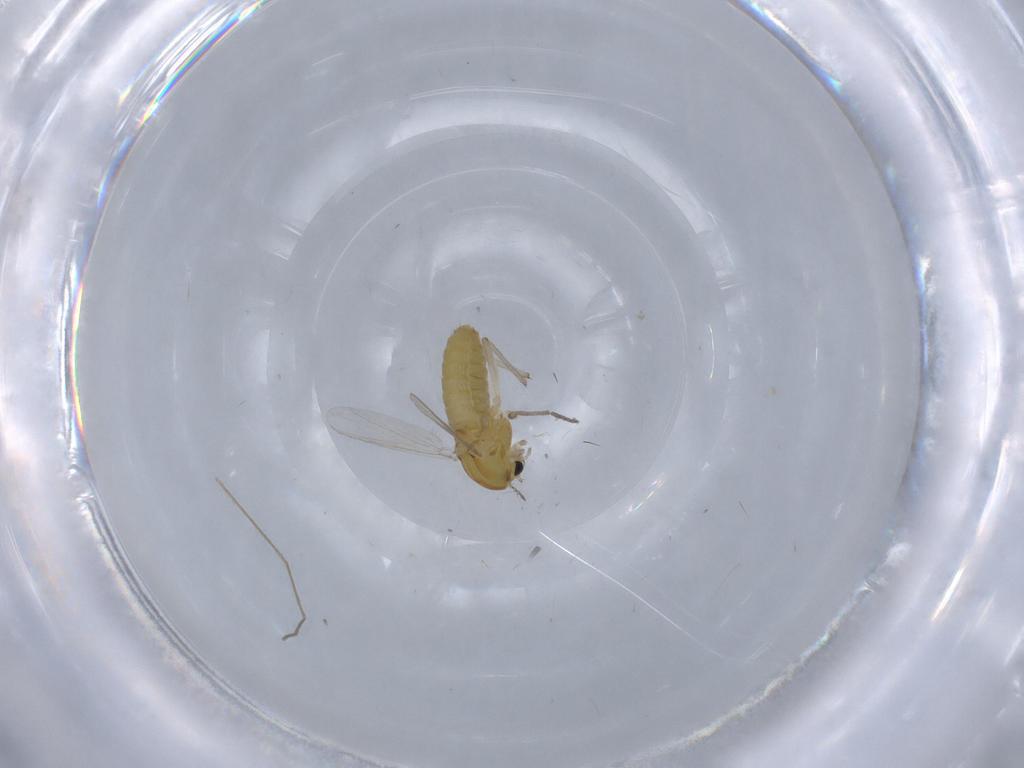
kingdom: Animalia
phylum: Arthropoda
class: Insecta
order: Diptera
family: Chironomidae
